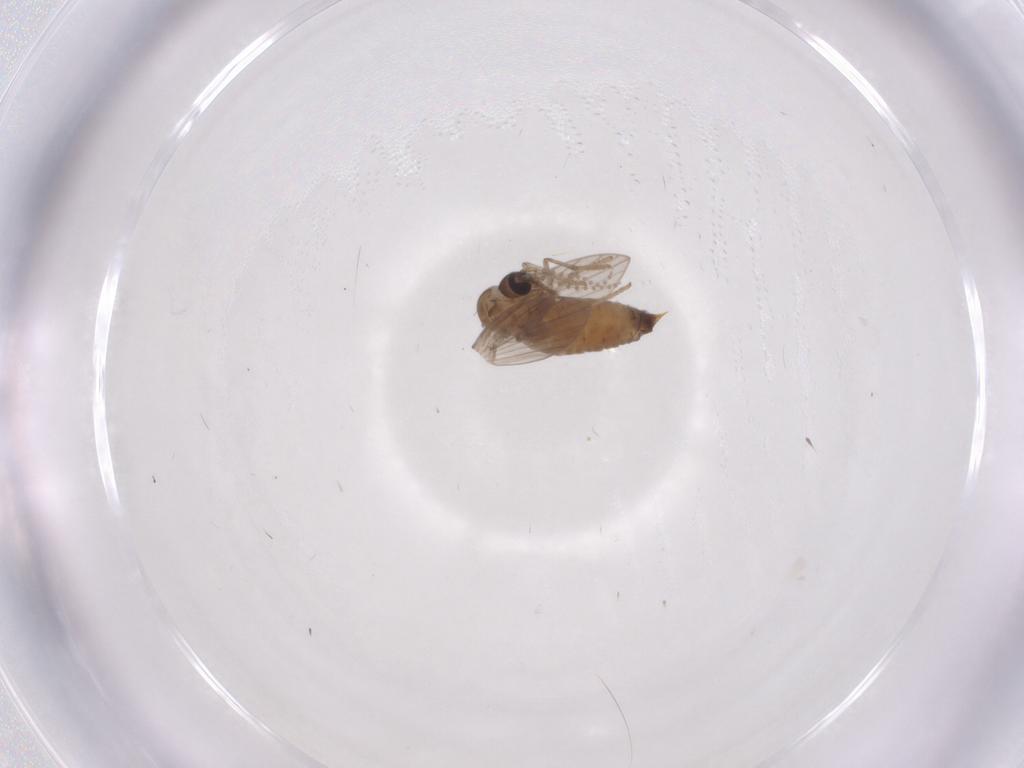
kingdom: Animalia
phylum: Arthropoda
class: Insecta
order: Diptera
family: Psychodidae
